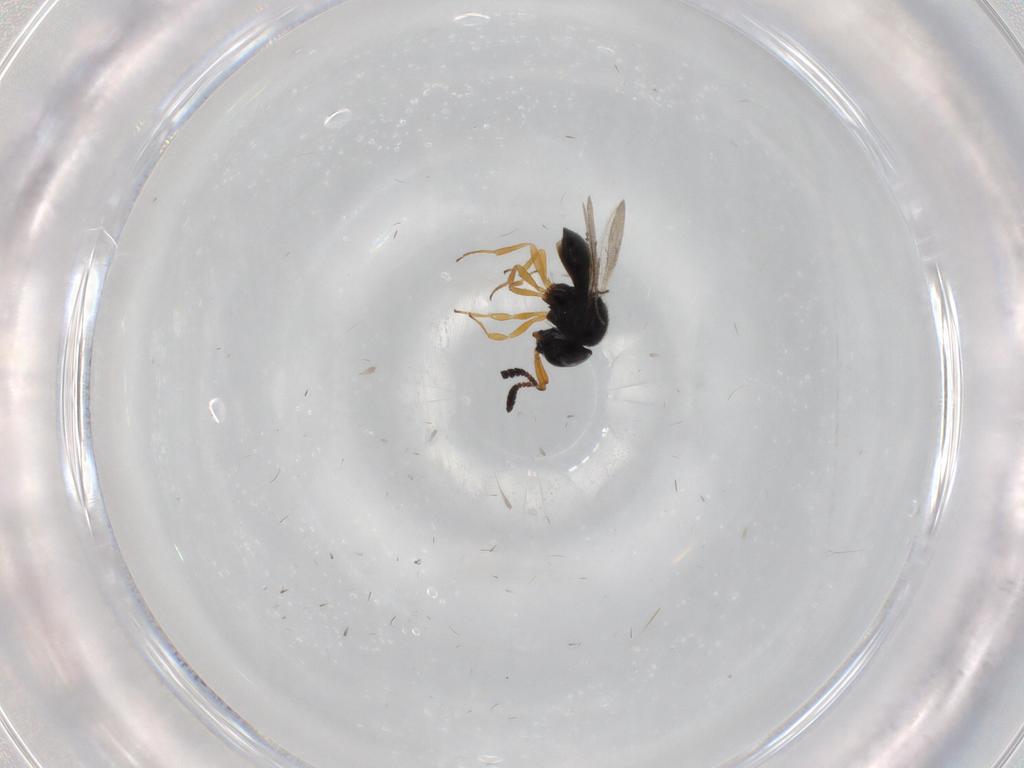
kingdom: Animalia
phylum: Arthropoda
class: Insecta
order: Hymenoptera
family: Scelionidae
